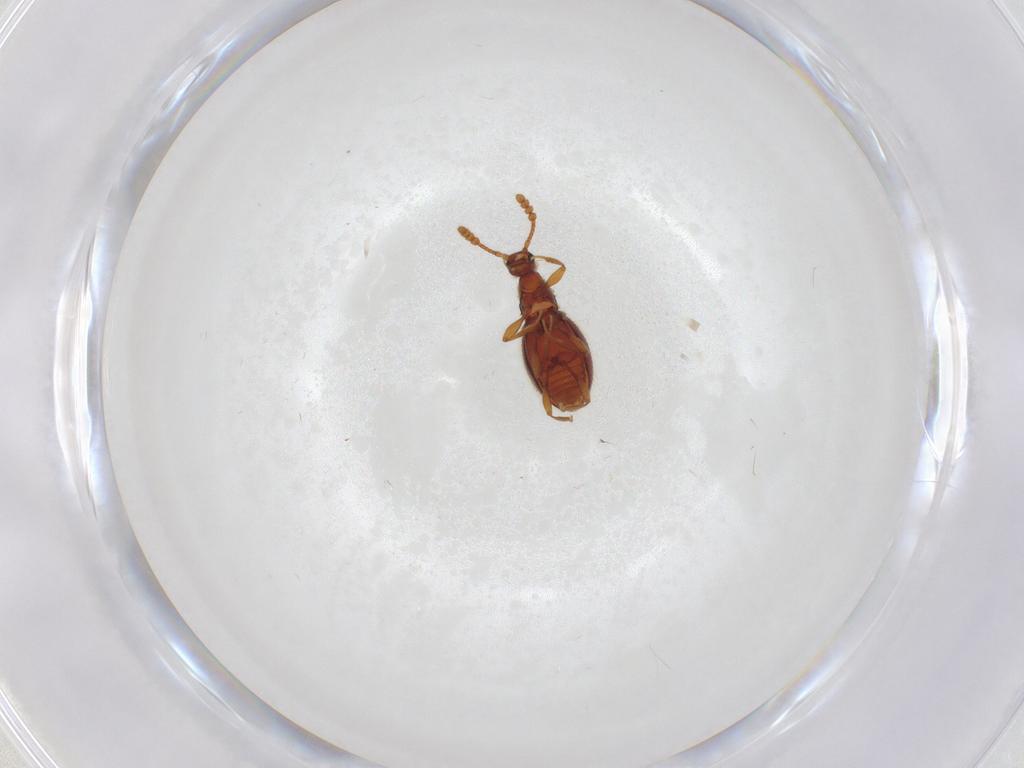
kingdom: Animalia
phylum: Arthropoda
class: Insecta
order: Coleoptera
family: Staphylinidae
